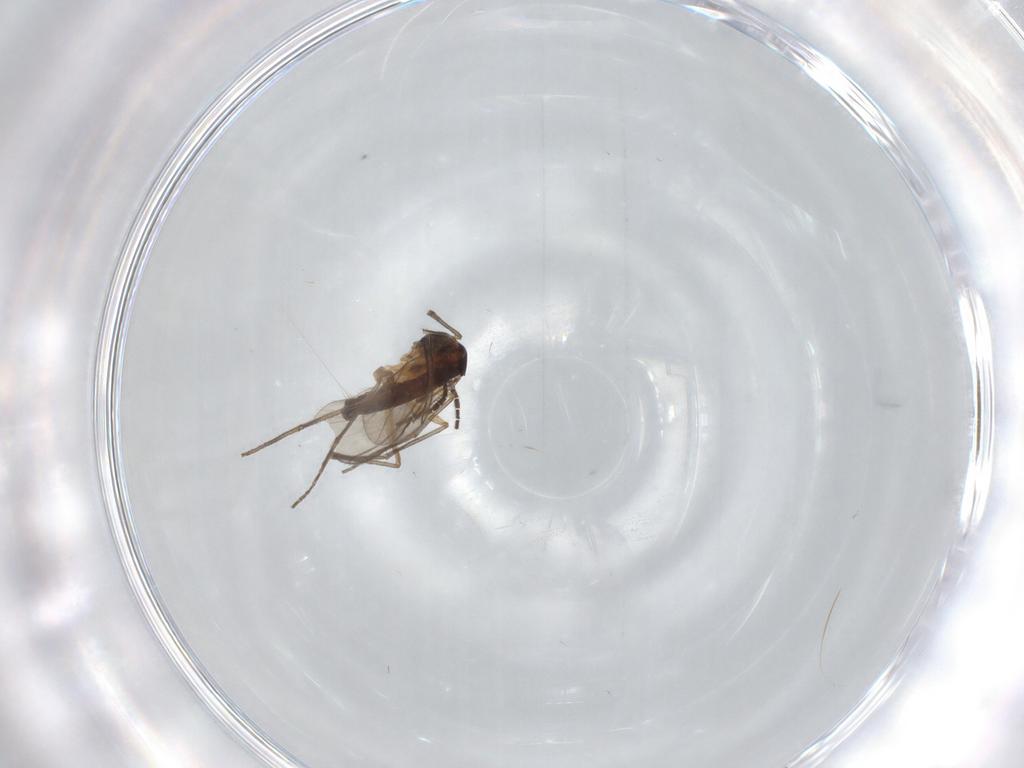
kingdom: Animalia
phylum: Arthropoda
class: Insecta
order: Diptera
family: Sciaridae
